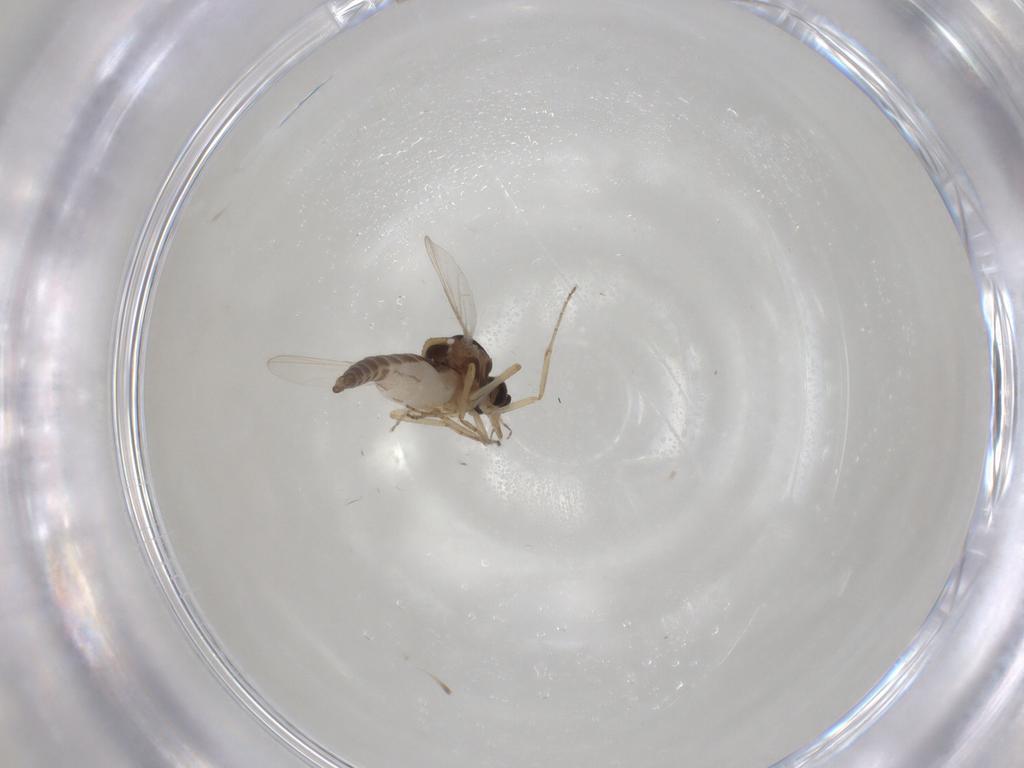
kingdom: Animalia
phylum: Arthropoda
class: Insecta
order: Diptera
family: Ceratopogonidae
